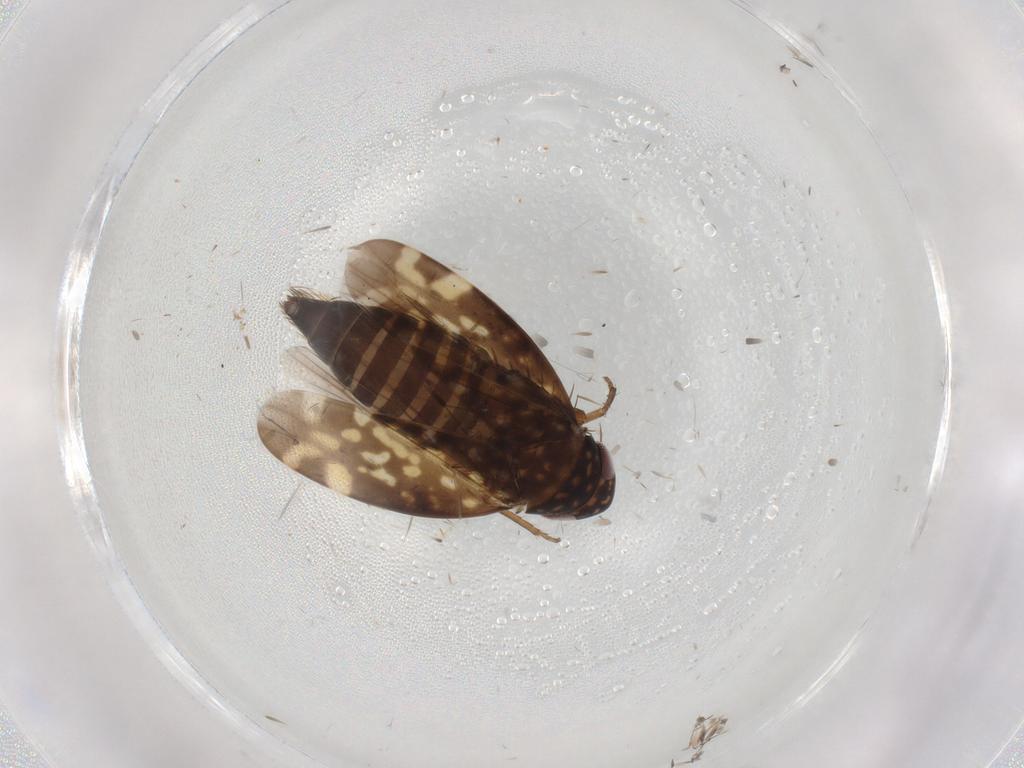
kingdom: Animalia
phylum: Arthropoda
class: Insecta
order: Hemiptera
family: Cicadellidae
